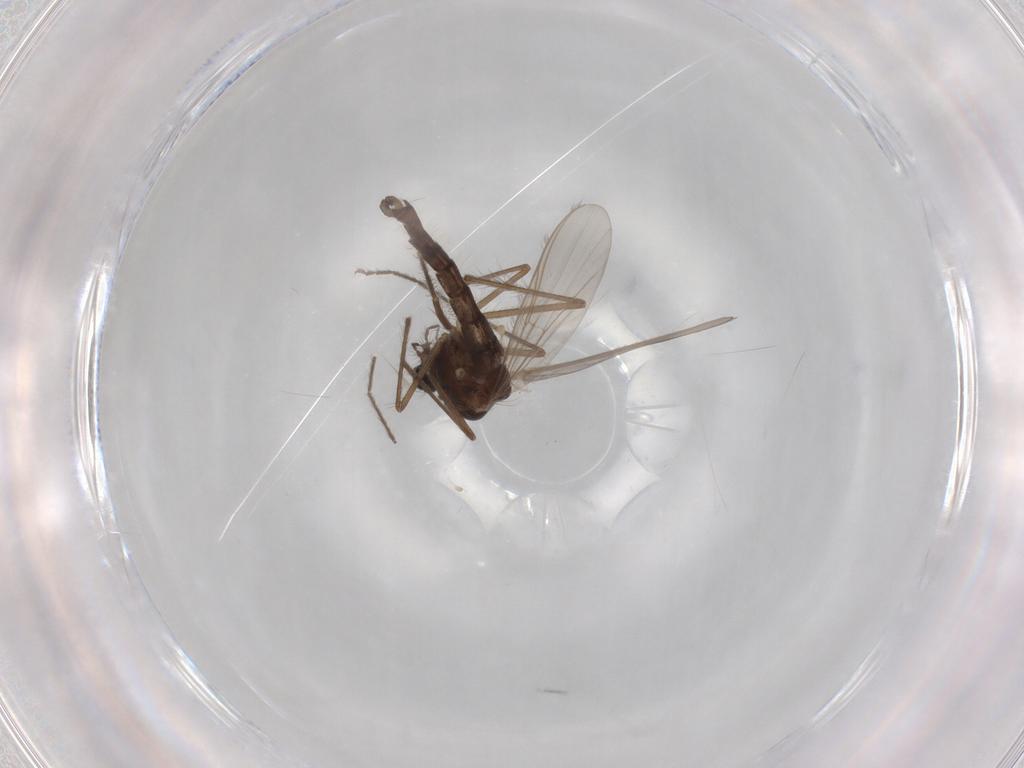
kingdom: Animalia
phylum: Arthropoda
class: Insecta
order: Diptera
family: Chironomidae
